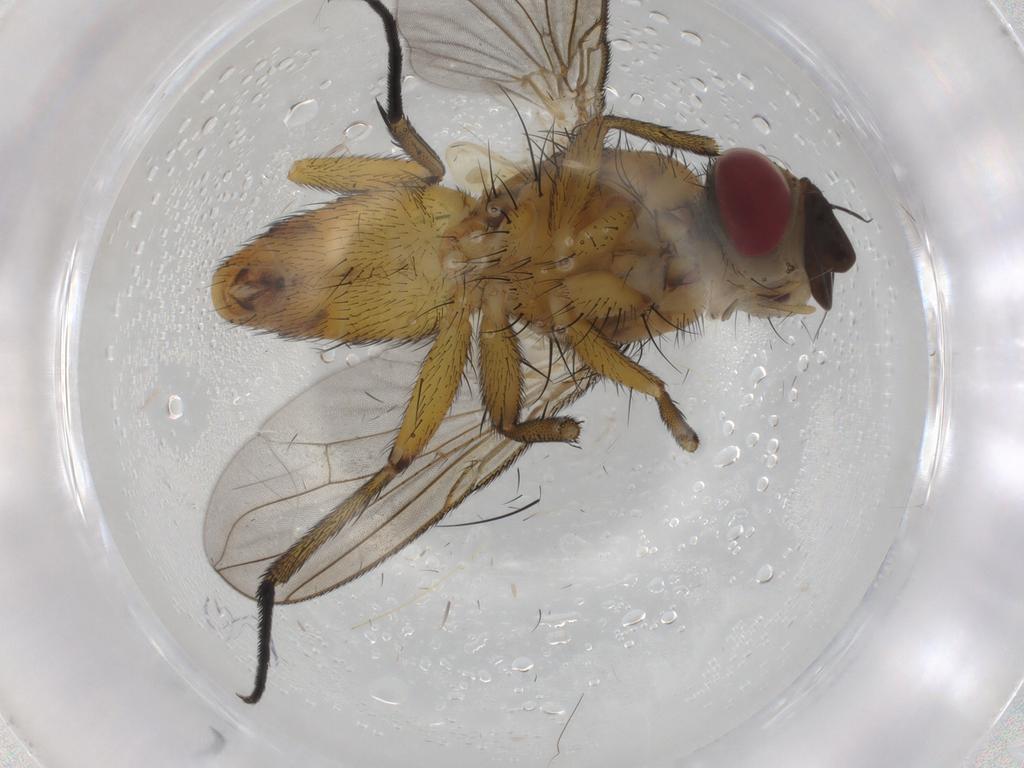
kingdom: Animalia
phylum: Arthropoda
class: Insecta
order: Diptera
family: Tachinidae
